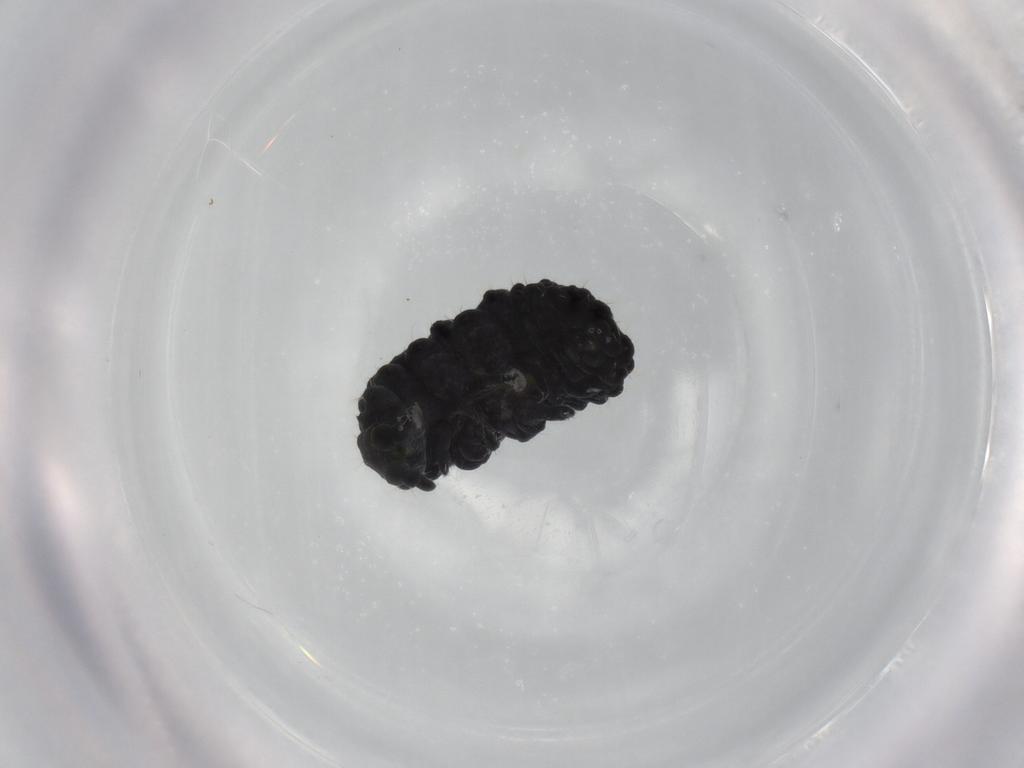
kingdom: Animalia
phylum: Arthropoda
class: Collembola
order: Poduromorpha
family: Neanuridae
